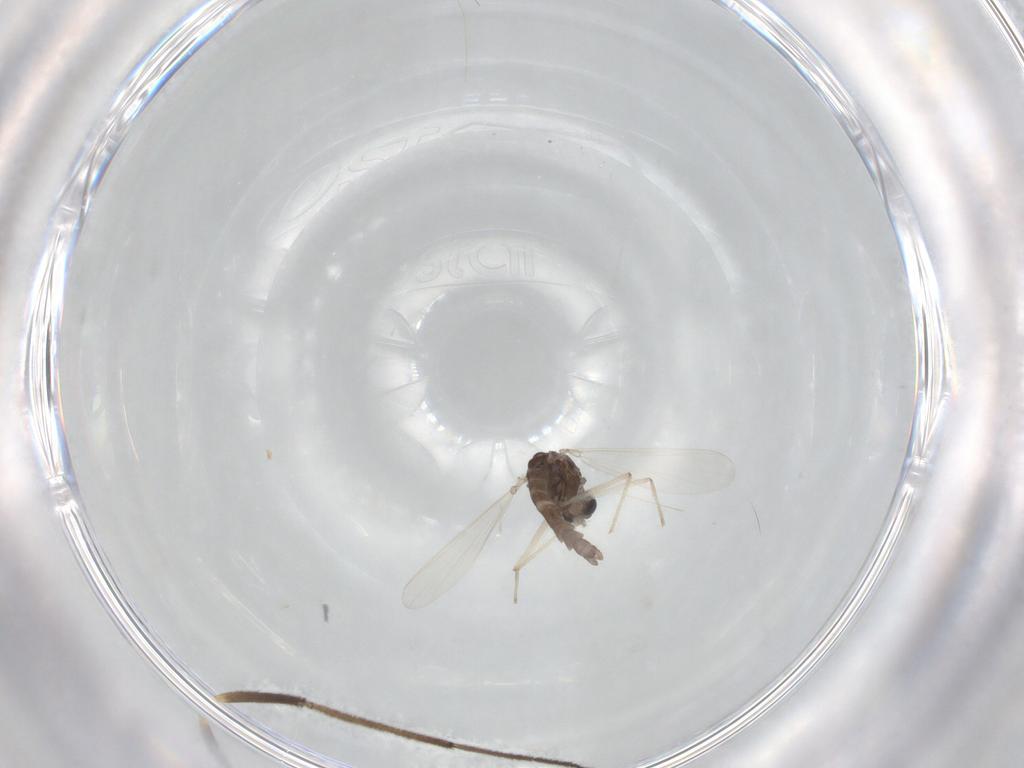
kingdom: Animalia
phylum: Arthropoda
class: Insecta
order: Diptera
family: Chironomidae
